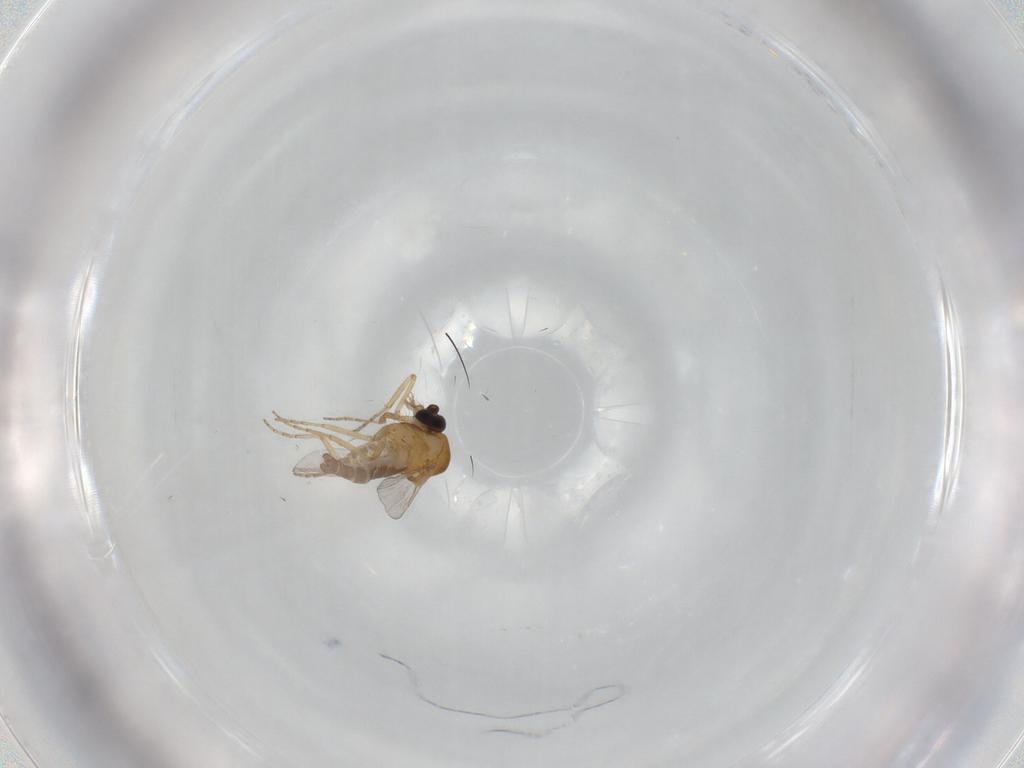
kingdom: Animalia
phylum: Arthropoda
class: Insecta
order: Diptera
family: Ceratopogonidae
